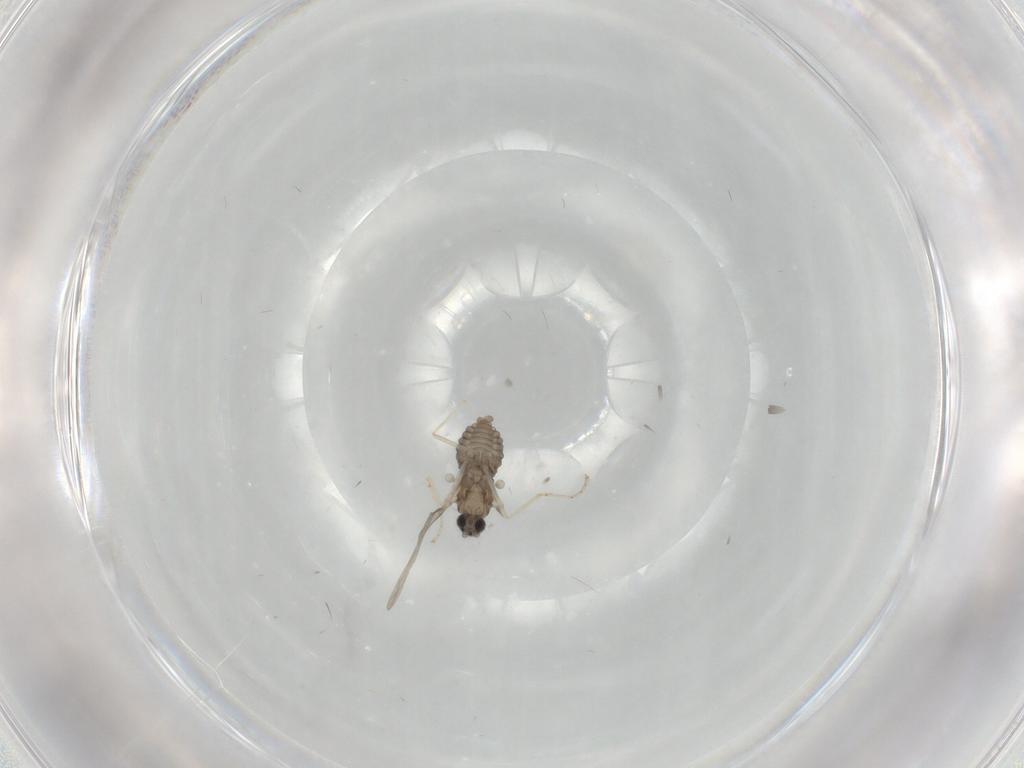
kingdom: Animalia
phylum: Arthropoda
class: Insecta
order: Diptera
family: Cecidomyiidae
